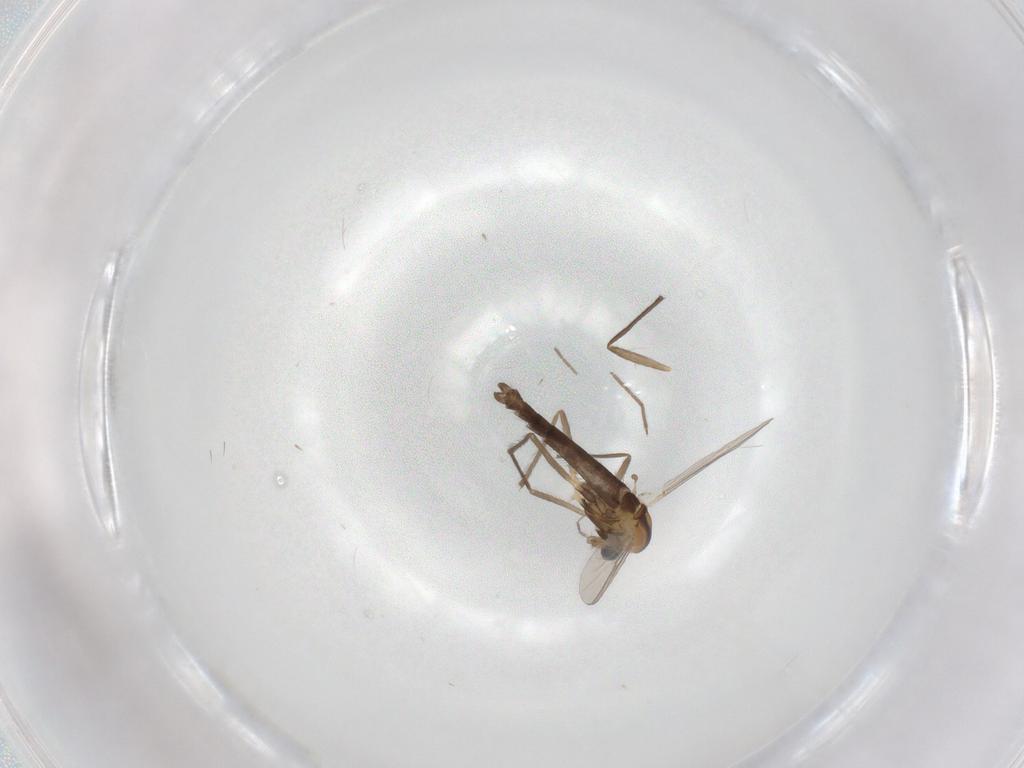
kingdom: Animalia
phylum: Arthropoda
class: Insecta
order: Diptera
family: Chironomidae
